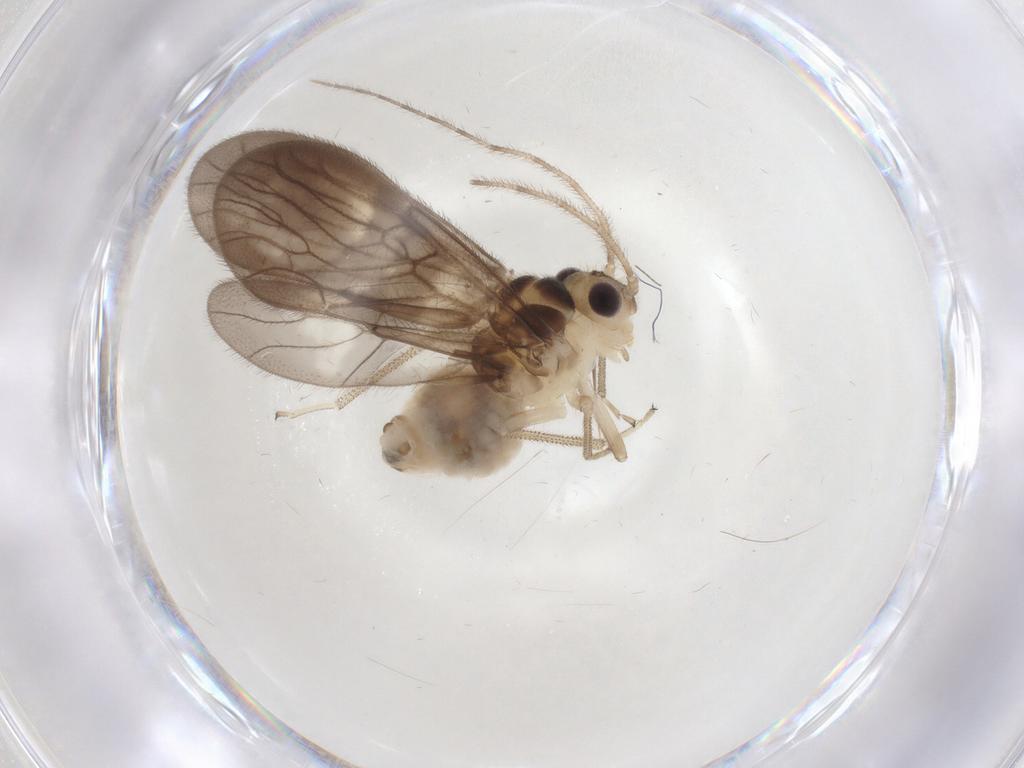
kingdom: Animalia
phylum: Arthropoda
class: Insecta
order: Psocodea
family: Amphipsocidae
